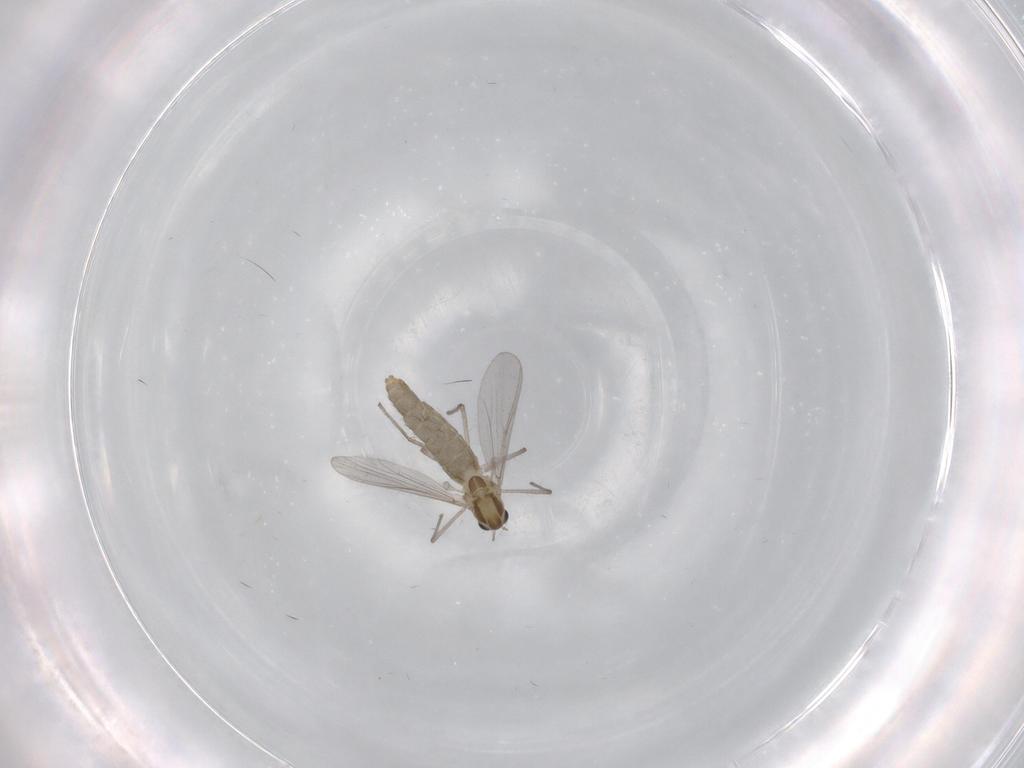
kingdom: Animalia
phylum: Arthropoda
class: Insecta
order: Diptera
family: Chironomidae
